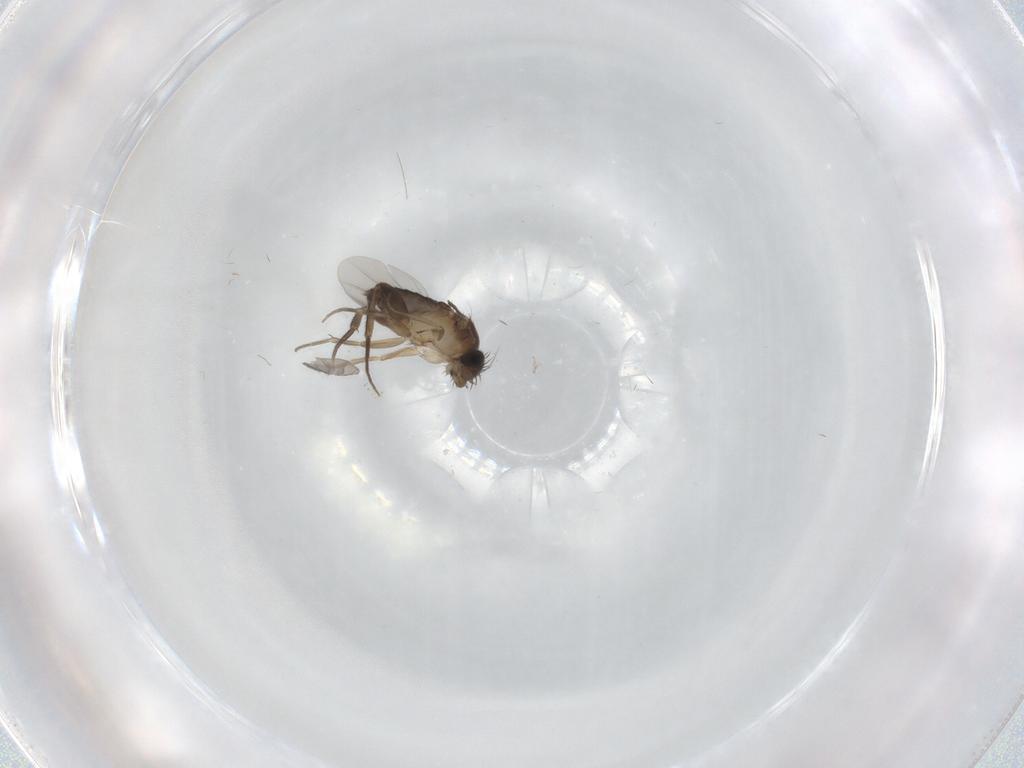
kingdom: Animalia
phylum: Arthropoda
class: Insecta
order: Diptera
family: Phoridae
